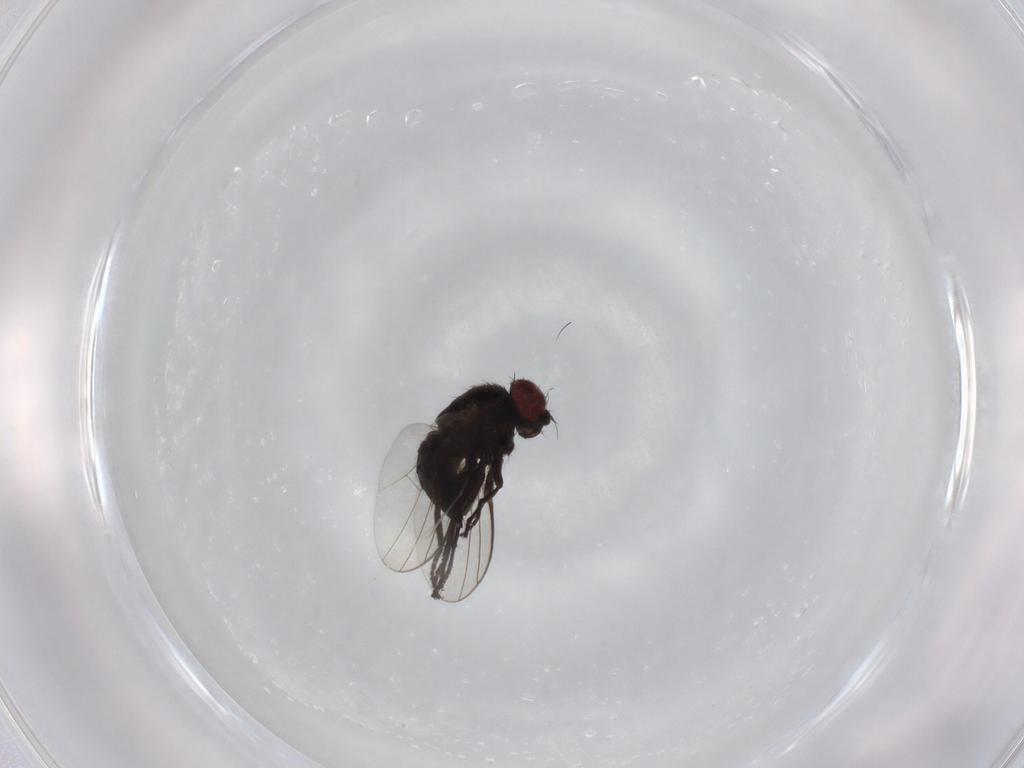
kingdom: Animalia
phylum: Arthropoda
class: Insecta
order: Diptera
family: Agromyzidae
